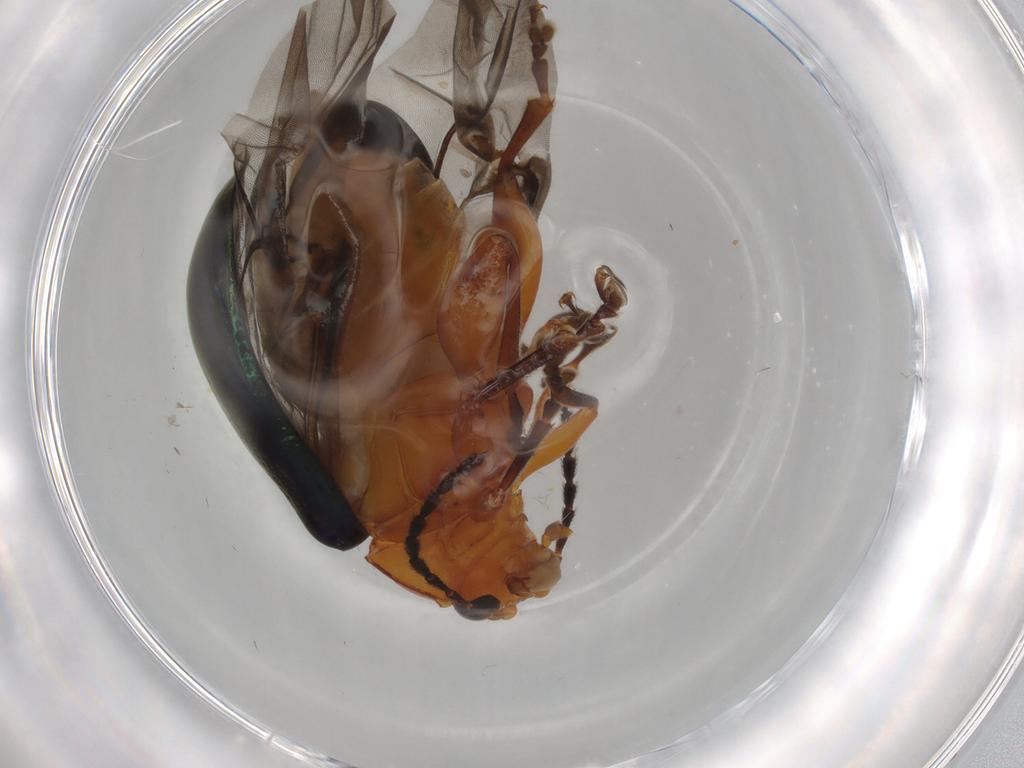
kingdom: Animalia
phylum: Arthropoda
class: Insecta
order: Coleoptera
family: Chrysomelidae
